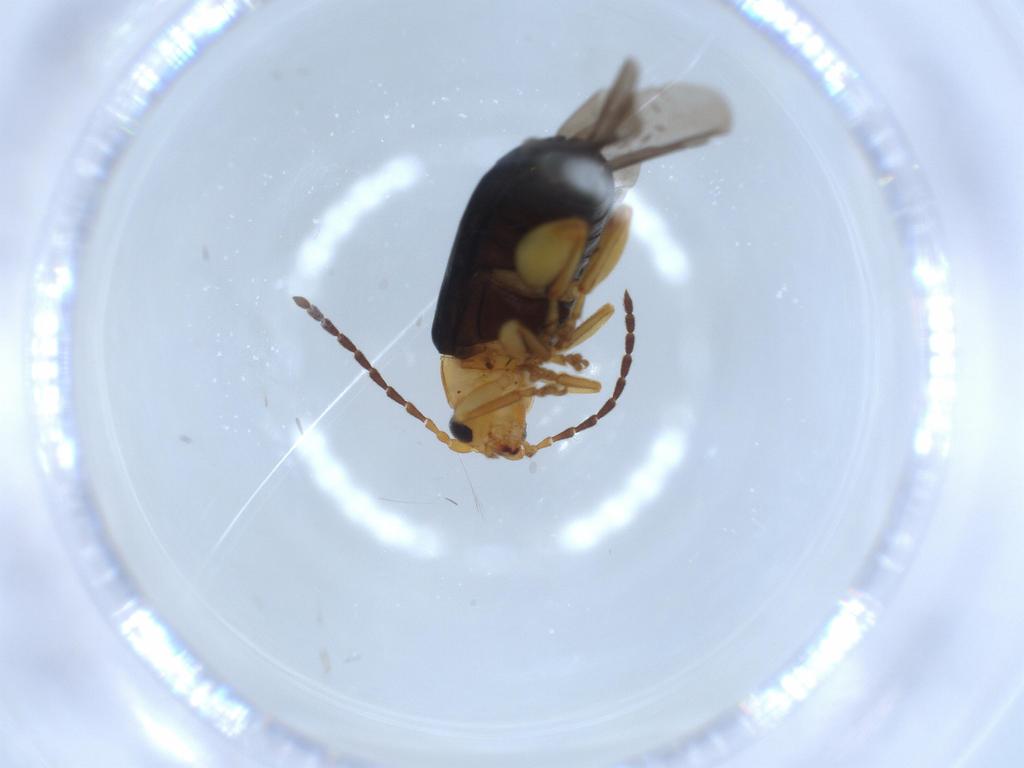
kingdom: Animalia
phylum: Arthropoda
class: Insecta
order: Coleoptera
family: Chrysomelidae
